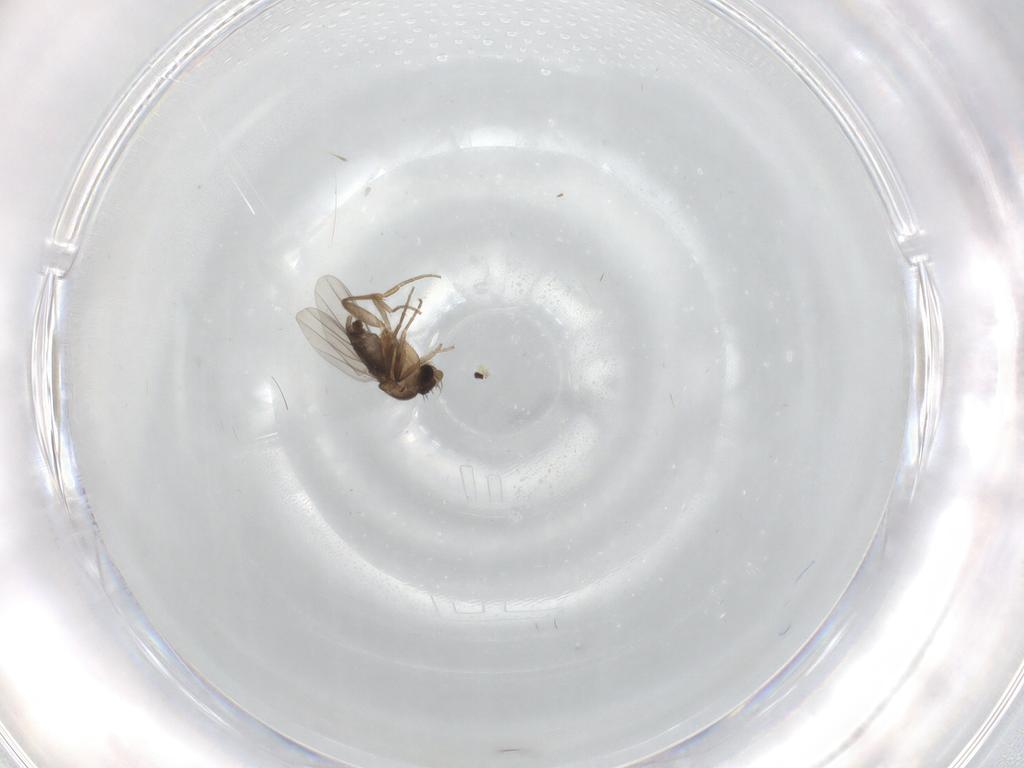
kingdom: Animalia
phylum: Arthropoda
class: Insecta
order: Diptera
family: Phoridae
